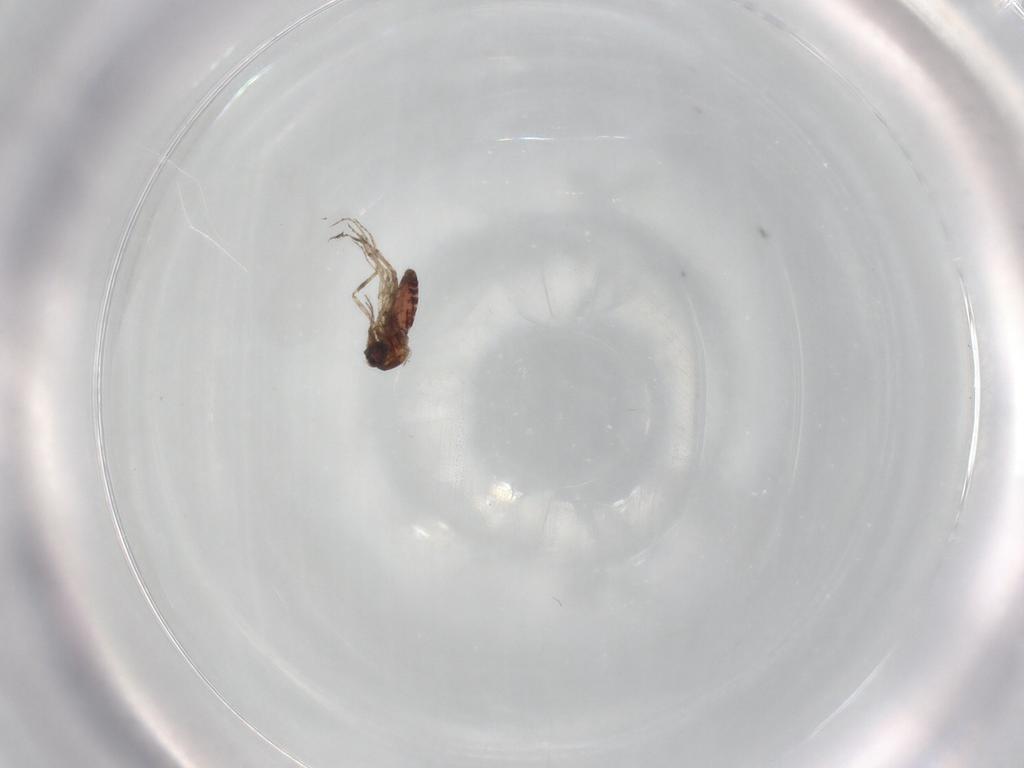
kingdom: Animalia
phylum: Arthropoda
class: Insecta
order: Diptera
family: Ceratopogonidae
